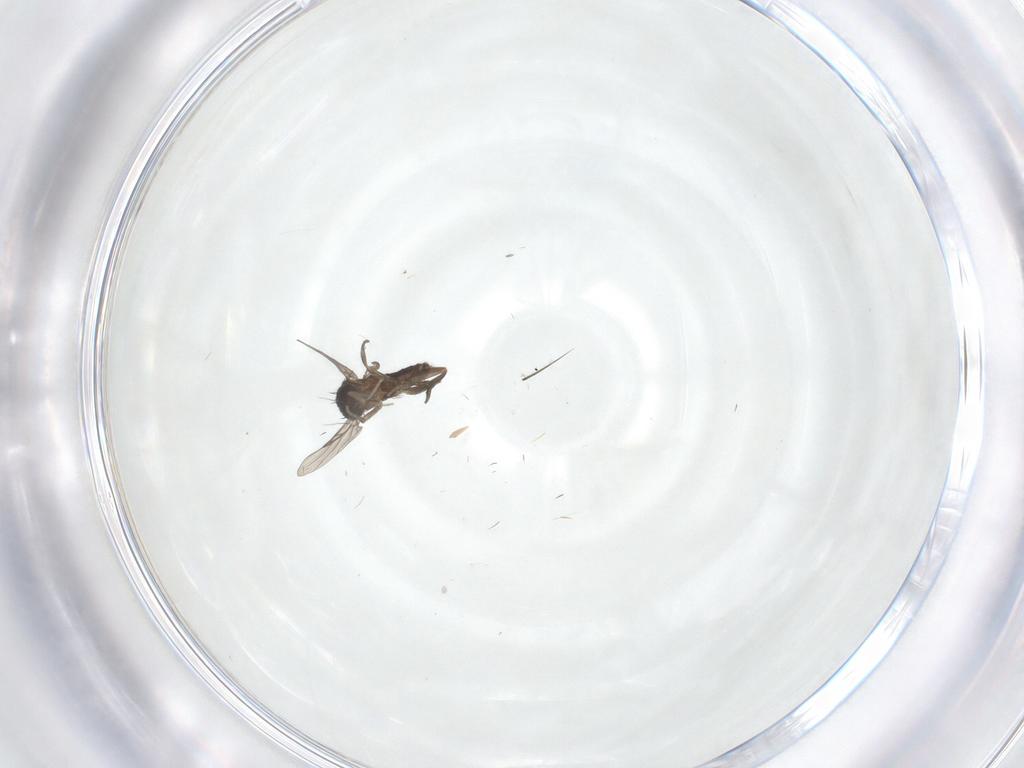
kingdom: Animalia
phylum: Arthropoda
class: Insecta
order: Diptera
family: Phoridae
